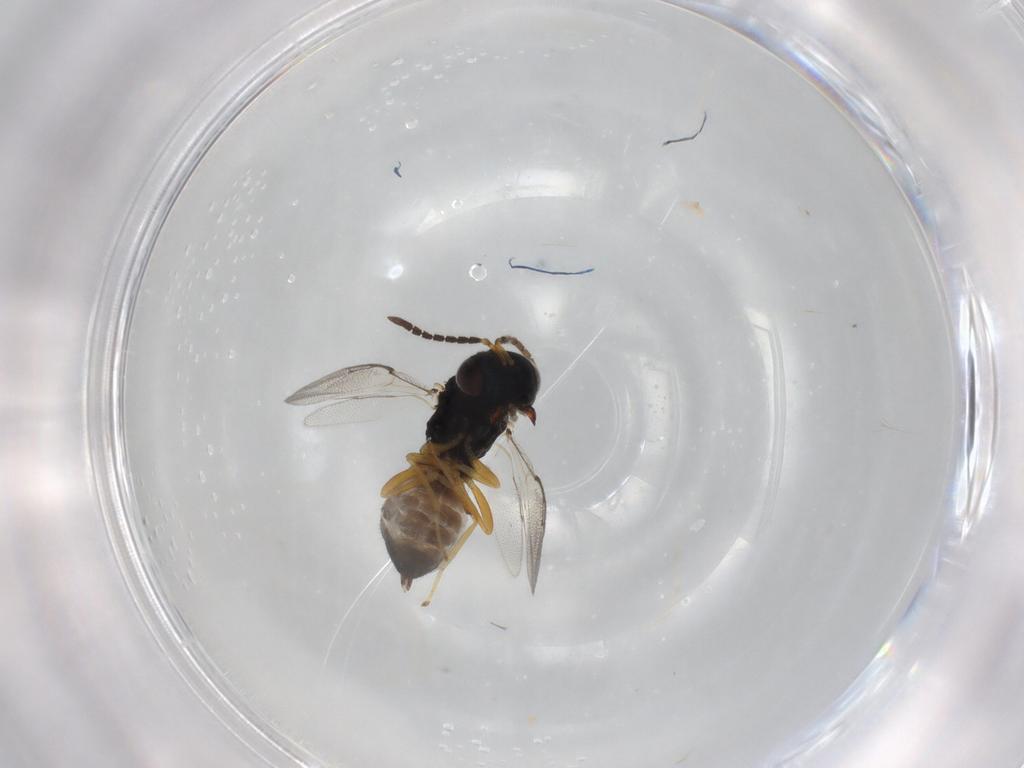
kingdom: Animalia
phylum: Arthropoda
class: Insecta
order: Hymenoptera
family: Pteromalidae
